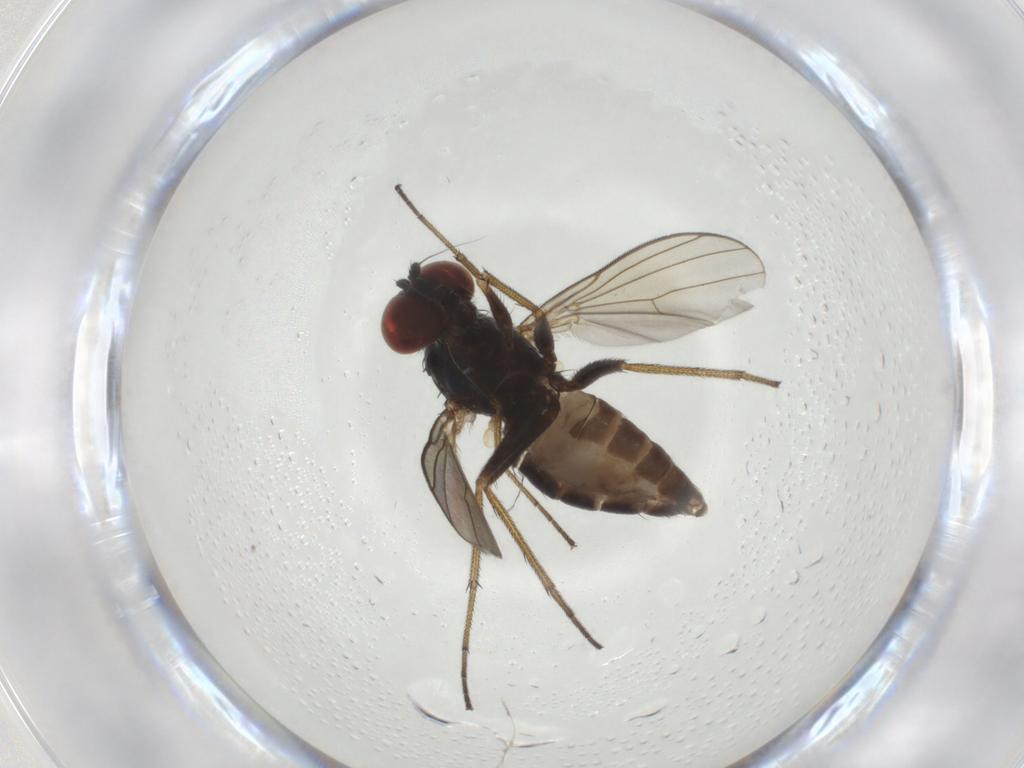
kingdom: Animalia
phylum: Arthropoda
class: Insecta
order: Diptera
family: Dolichopodidae
